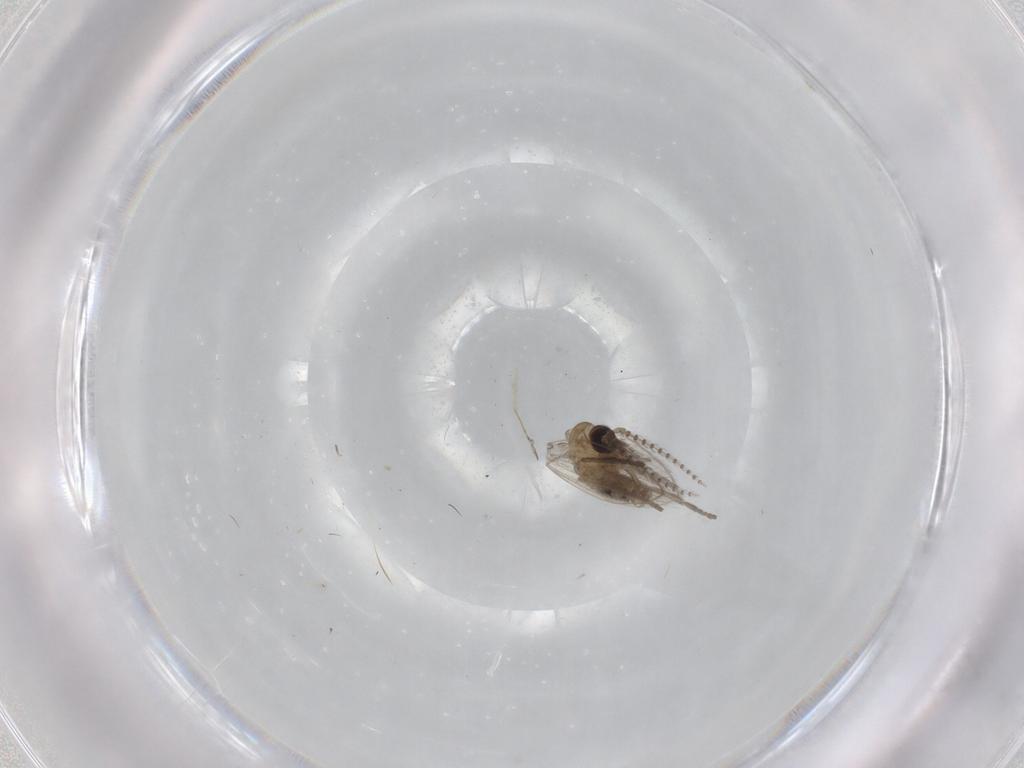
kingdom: Animalia
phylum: Arthropoda
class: Insecta
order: Diptera
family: Psychodidae
